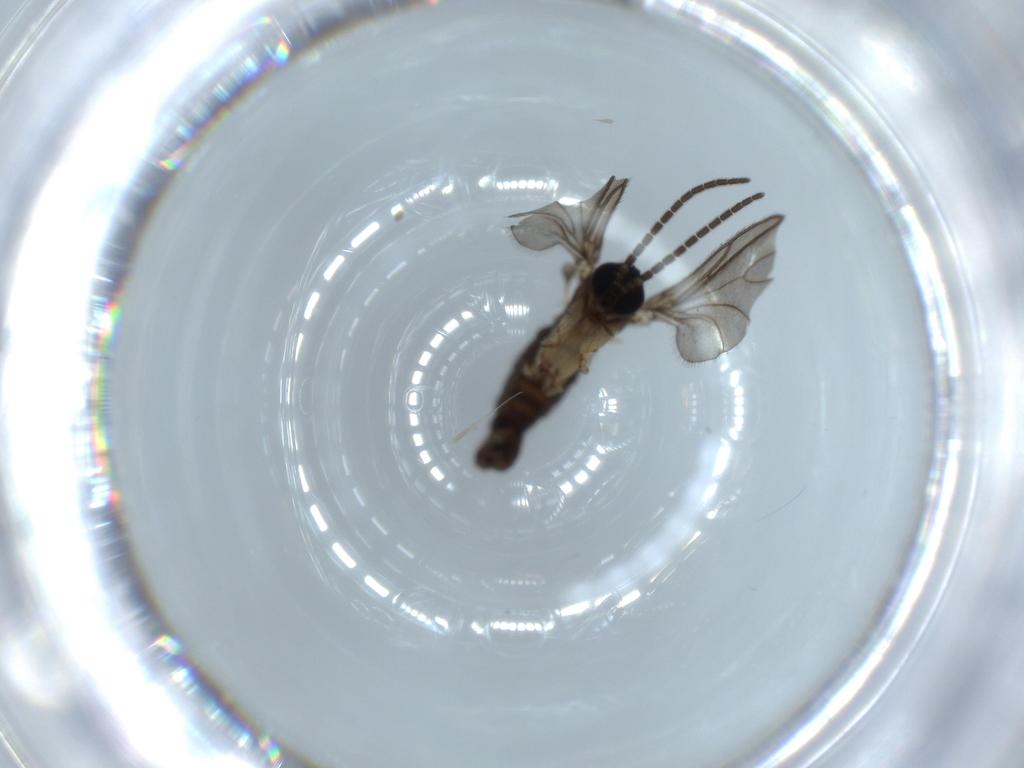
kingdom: Animalia
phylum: Arthropoda
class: Insecta
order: Diptera
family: Sciaridae
